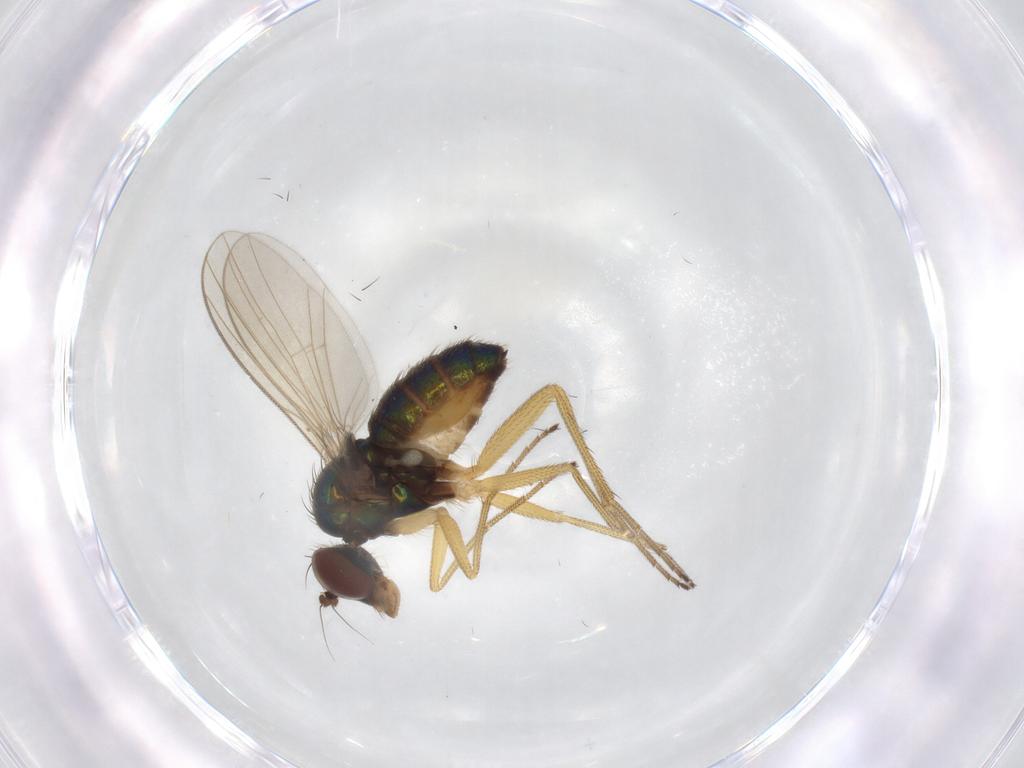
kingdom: Animalia
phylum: Arthropoda
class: Insecta
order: Diptera
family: Dolichopodidae
